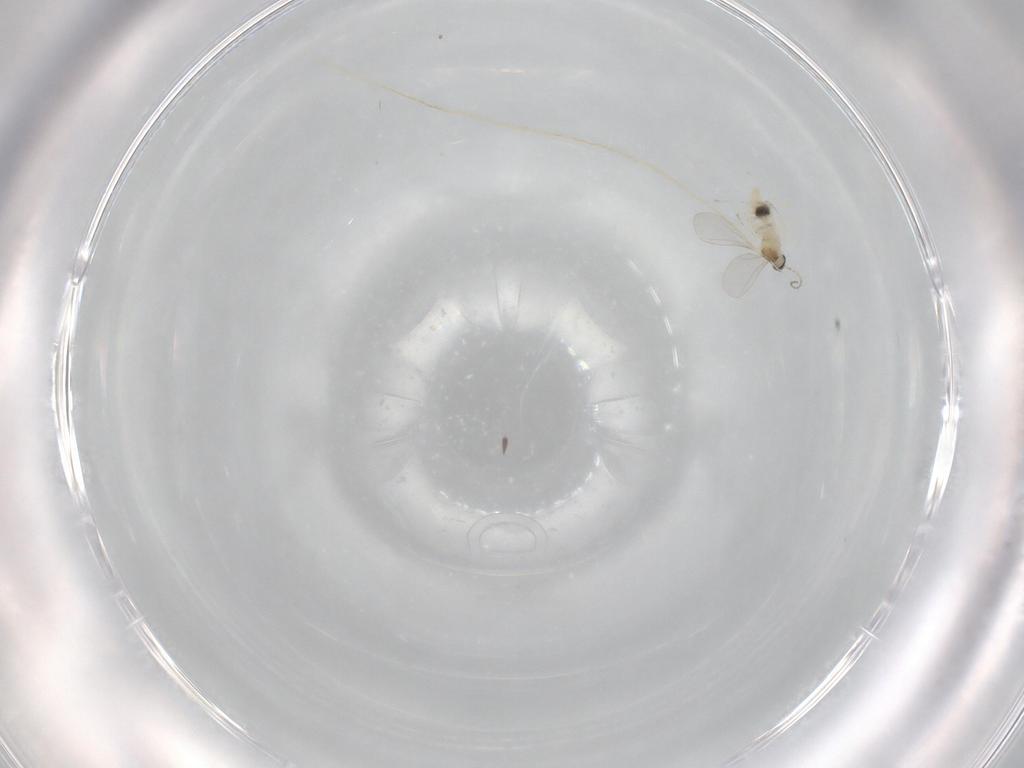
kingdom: Animalia
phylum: Arthropoda
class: Insecta
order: Diptera
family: Cecidomyiidae
